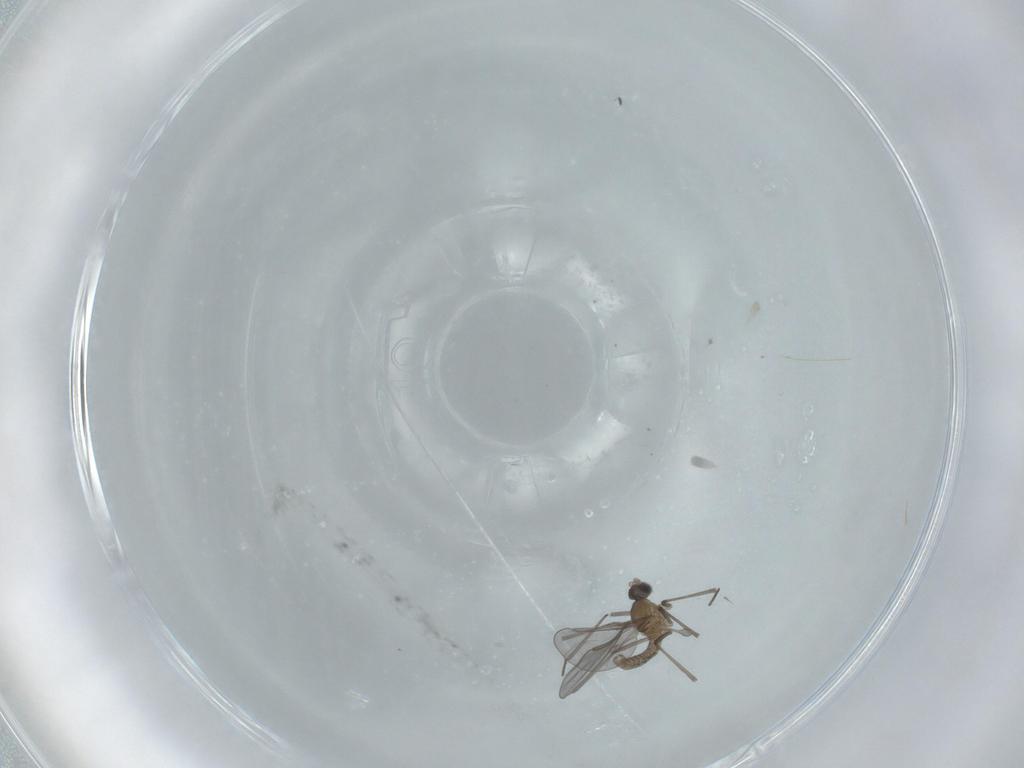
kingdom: Animalia
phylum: Arthropoda
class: Insecta
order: Diptera
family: Cecidomyiidae
